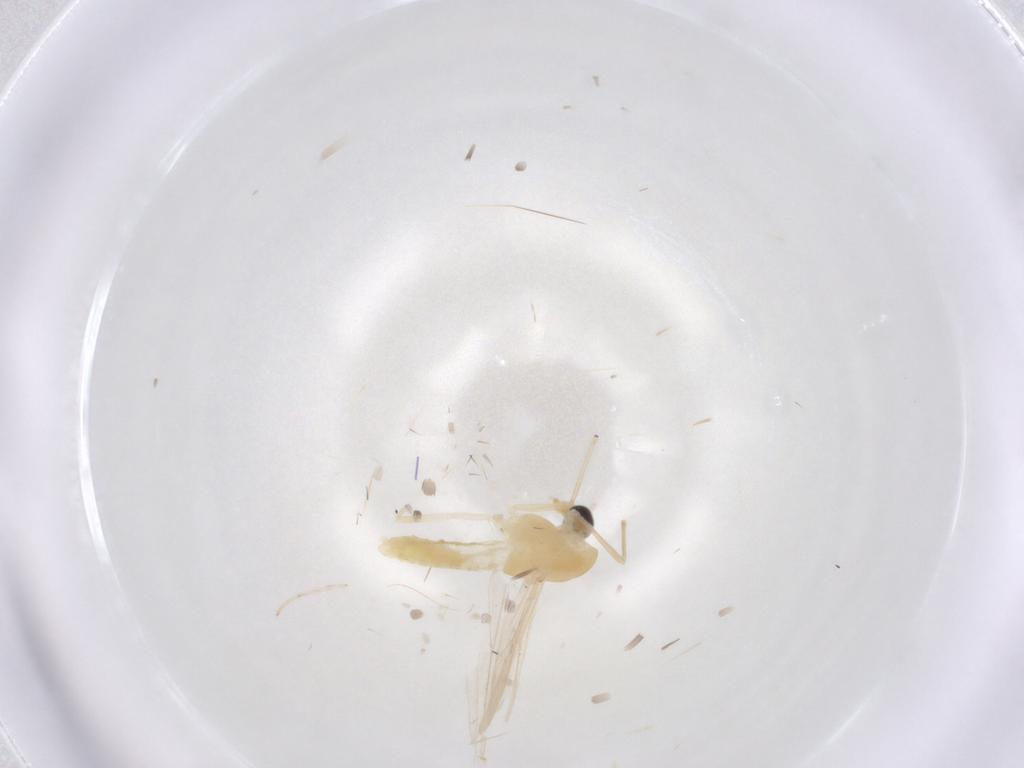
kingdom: Animalia
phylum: Arthropoda
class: Insecta
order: Diptera
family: Chironomidae
